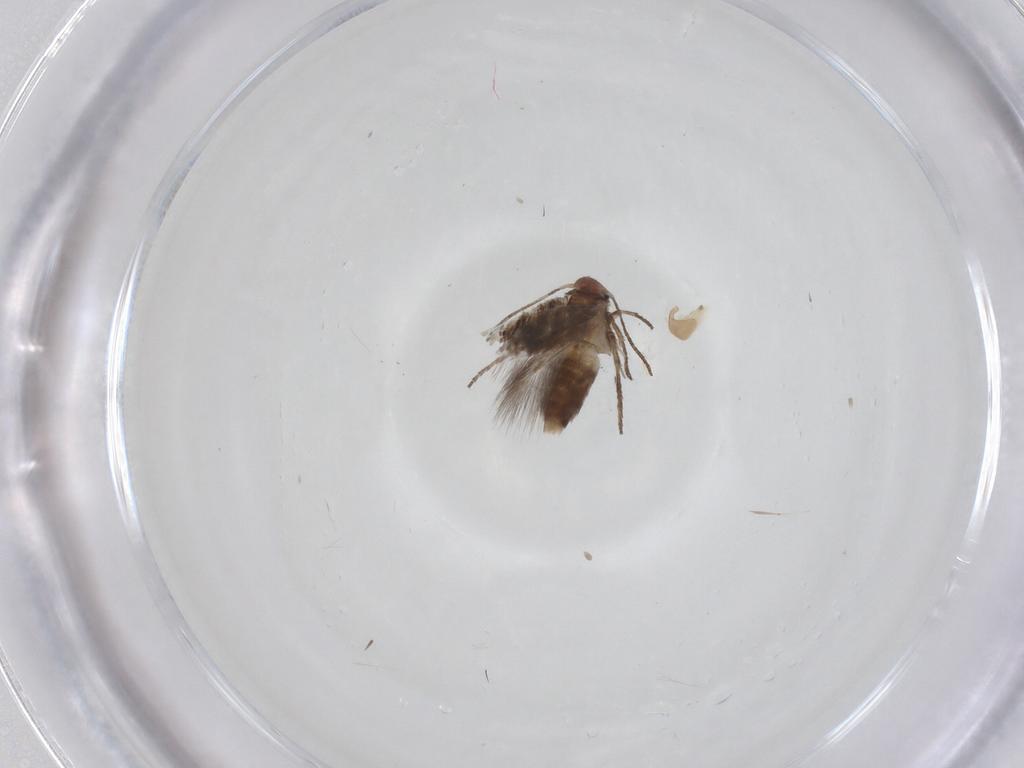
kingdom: Animalia
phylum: Arthropoda
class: Insecta
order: Lepidoptera
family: Lyonetiidae
